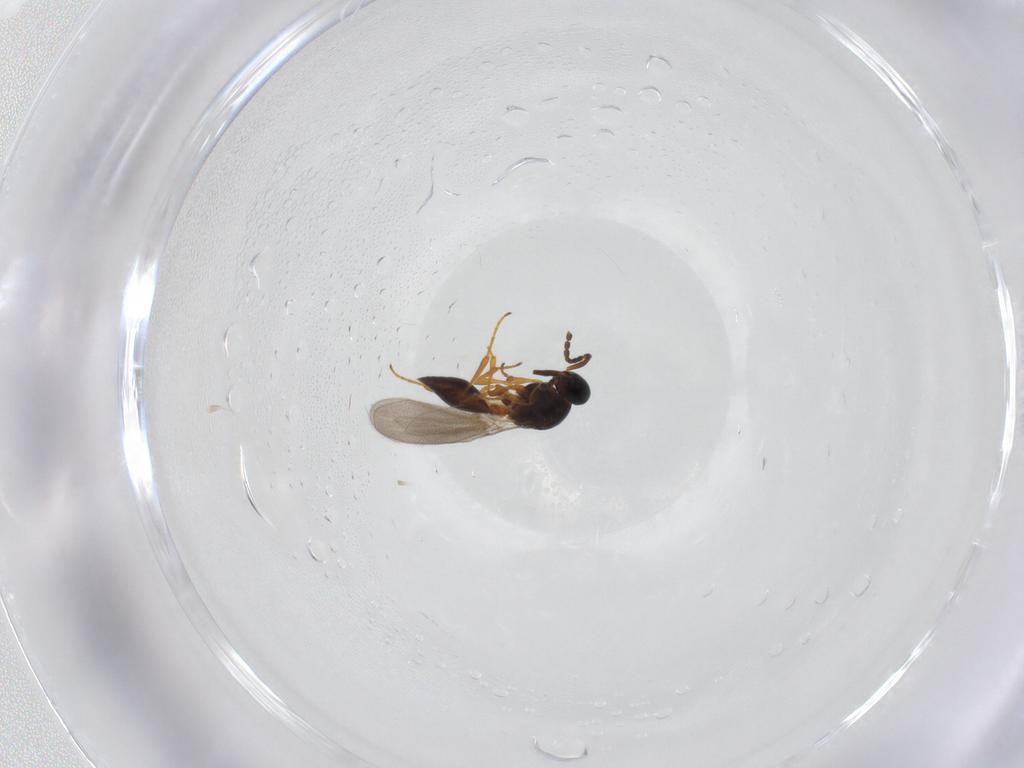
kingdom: Animalia
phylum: Arthropoda
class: Insecta
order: Hymenoptera
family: Platygastridae
